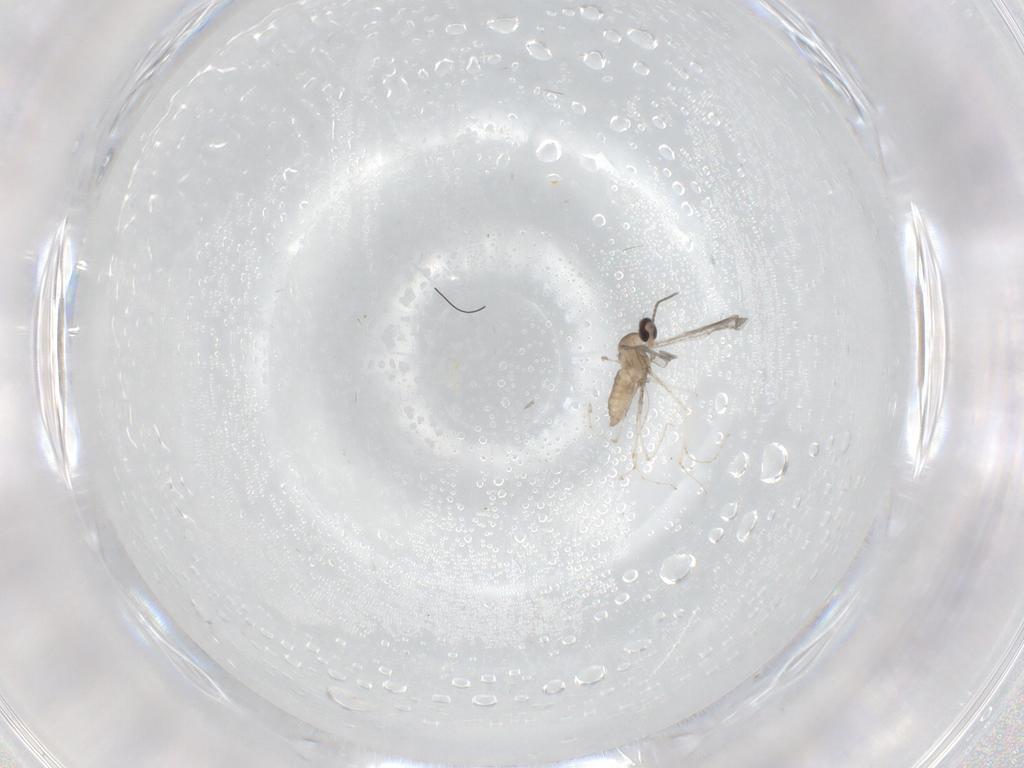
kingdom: Animalia
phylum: Arthropoda
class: Insecta
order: Diptera
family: Cecidomyiidae
